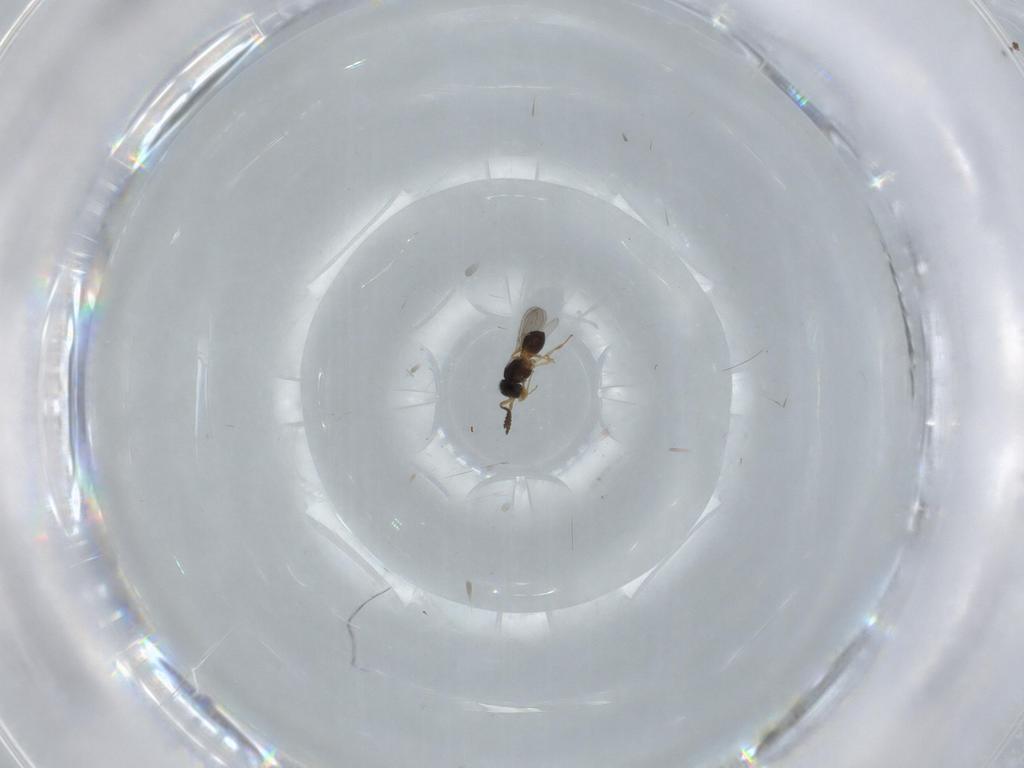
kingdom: Animalia
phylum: Arthropoda
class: Insecta
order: Hymenoptera
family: Scelionidae
